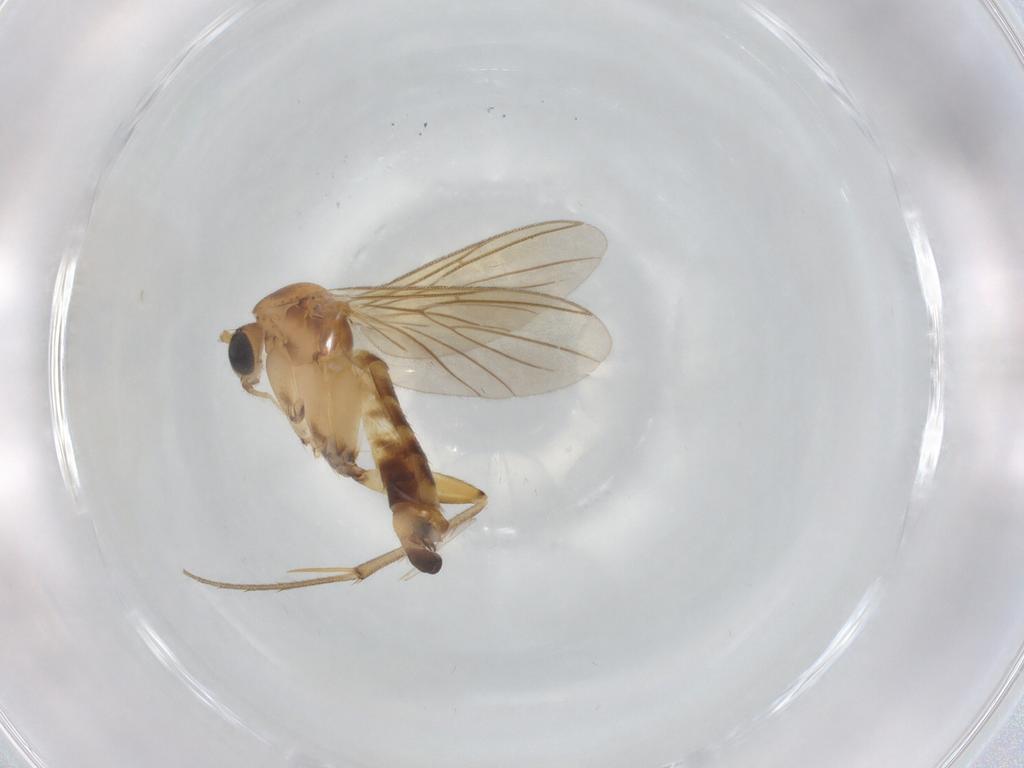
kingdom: Animalia
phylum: Arthropoda
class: Insecta
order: Diptera
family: Mycetophilidae
